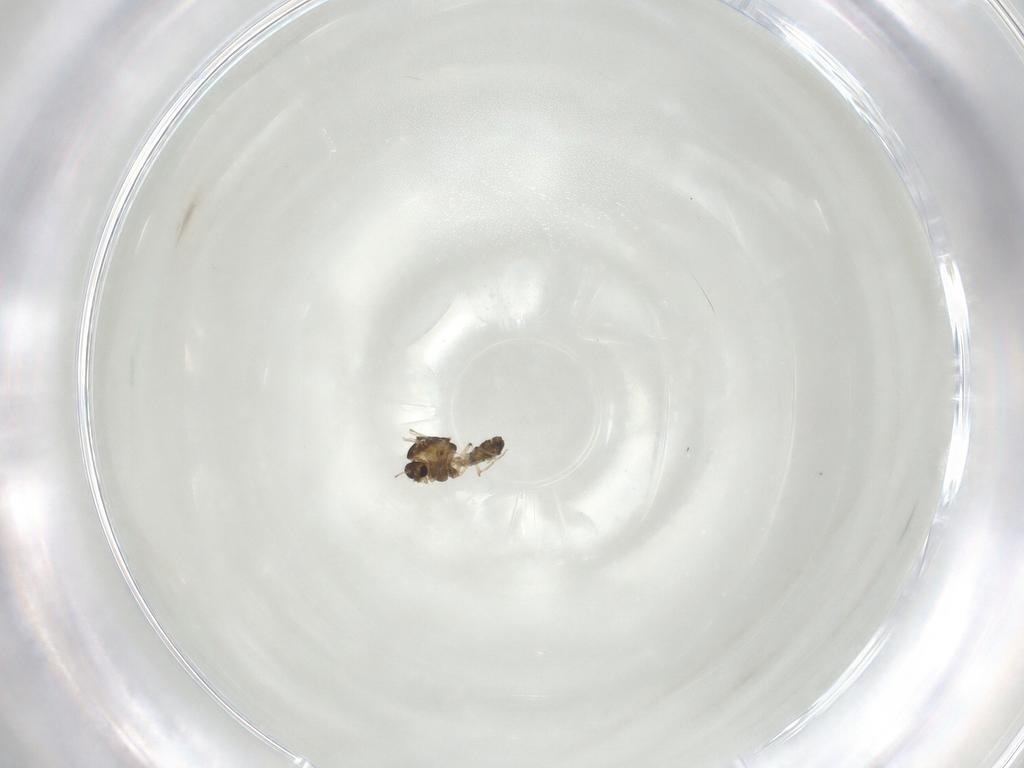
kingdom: Animalia
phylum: Arthropoda
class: Insecta
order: Diptera
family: Chironomidae
